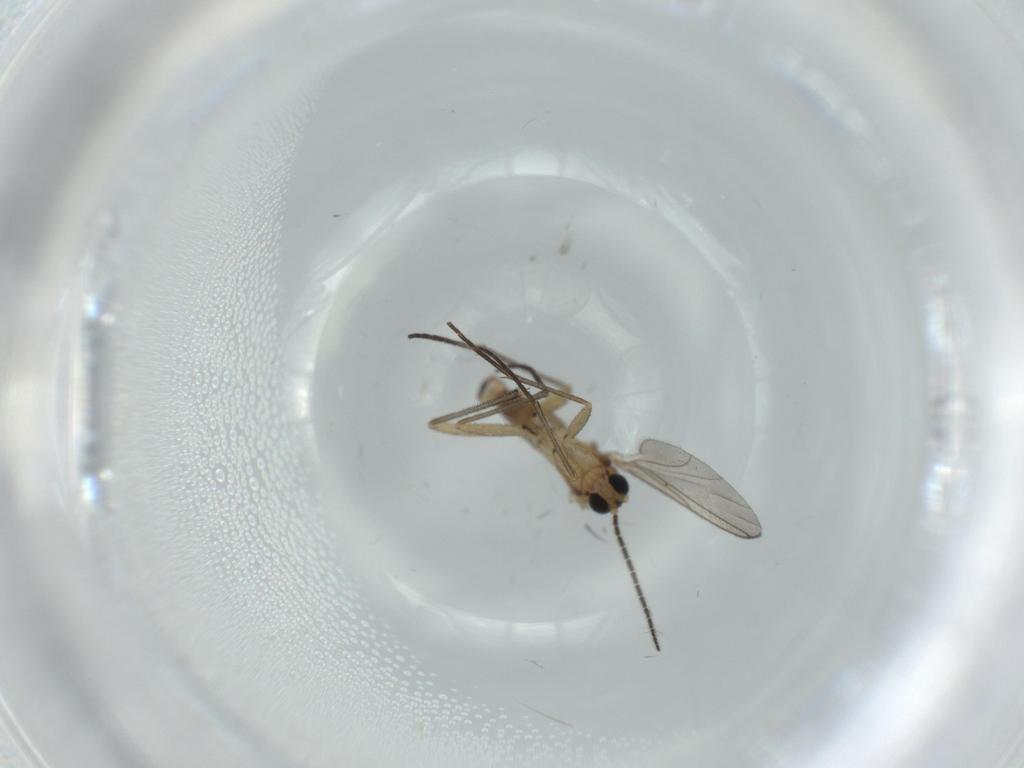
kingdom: Animalia
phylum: Arthropoda
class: Insecta
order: Diptera
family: Sciaridae
